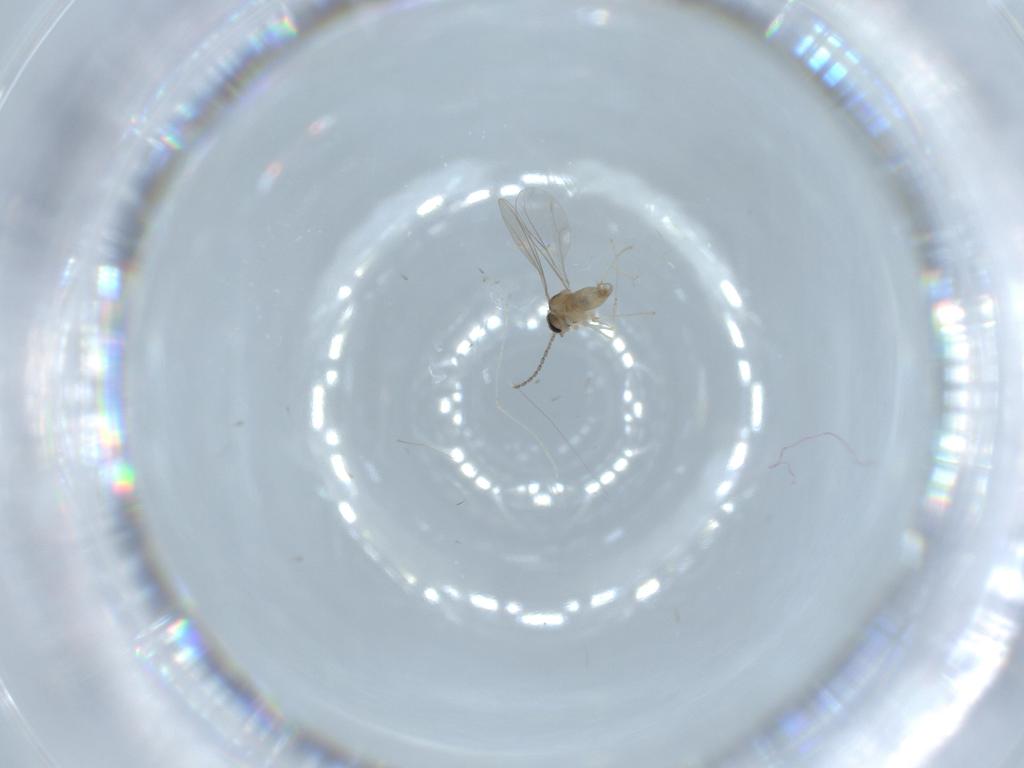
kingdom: Animalia
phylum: Arthropoda
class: Insecta
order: Diptera
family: Cecidomyiidae
